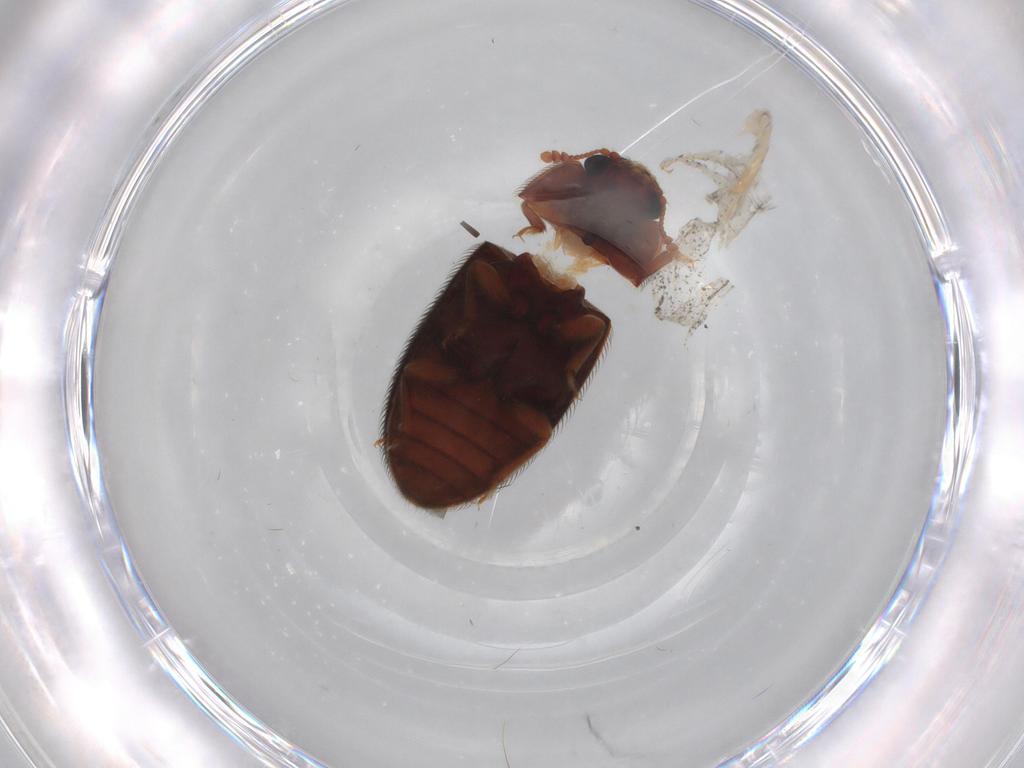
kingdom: Animalia
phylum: Arthropoda
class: Insecta
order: Coleoptera
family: Biphyllidae
